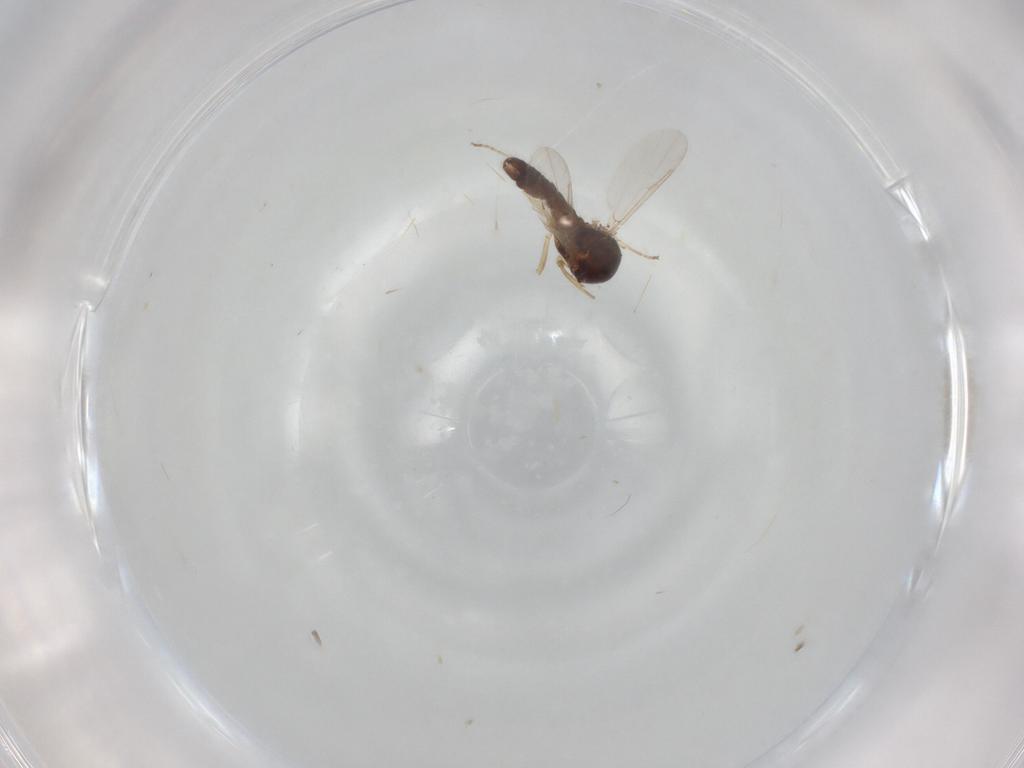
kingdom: Animalia
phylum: Arthropoda
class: Insecta
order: Diptera
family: Ceratopogonidae
